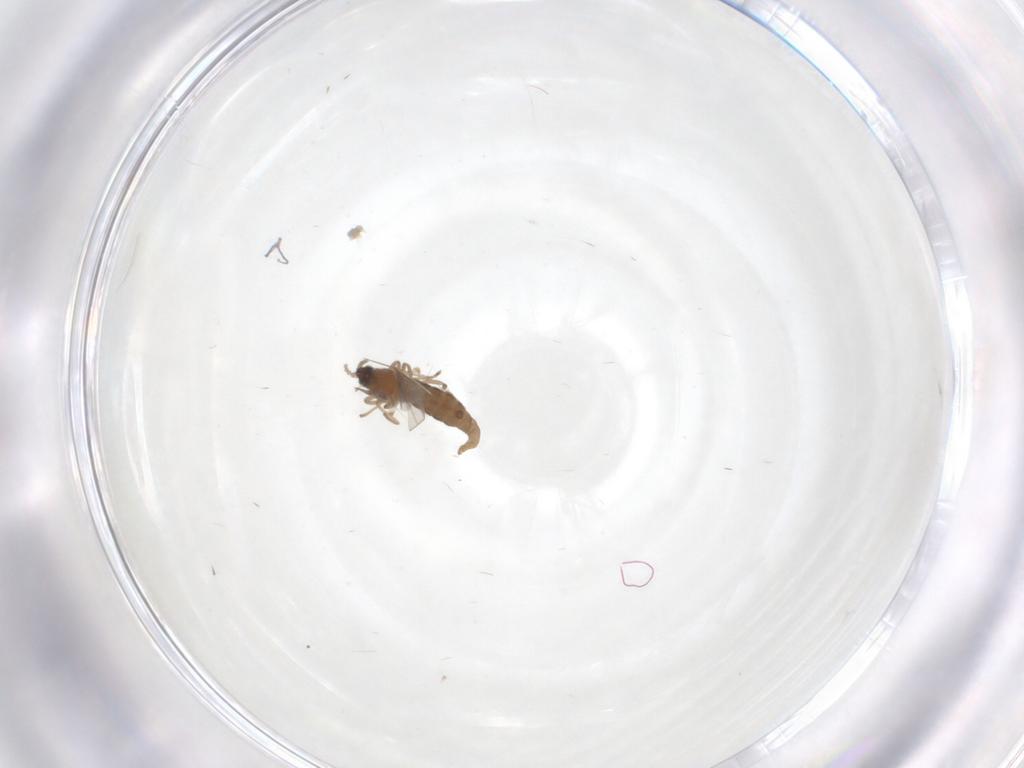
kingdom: Animalia
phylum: Arthropoda
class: Insecta
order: Diptera
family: Cecidomyiidae
